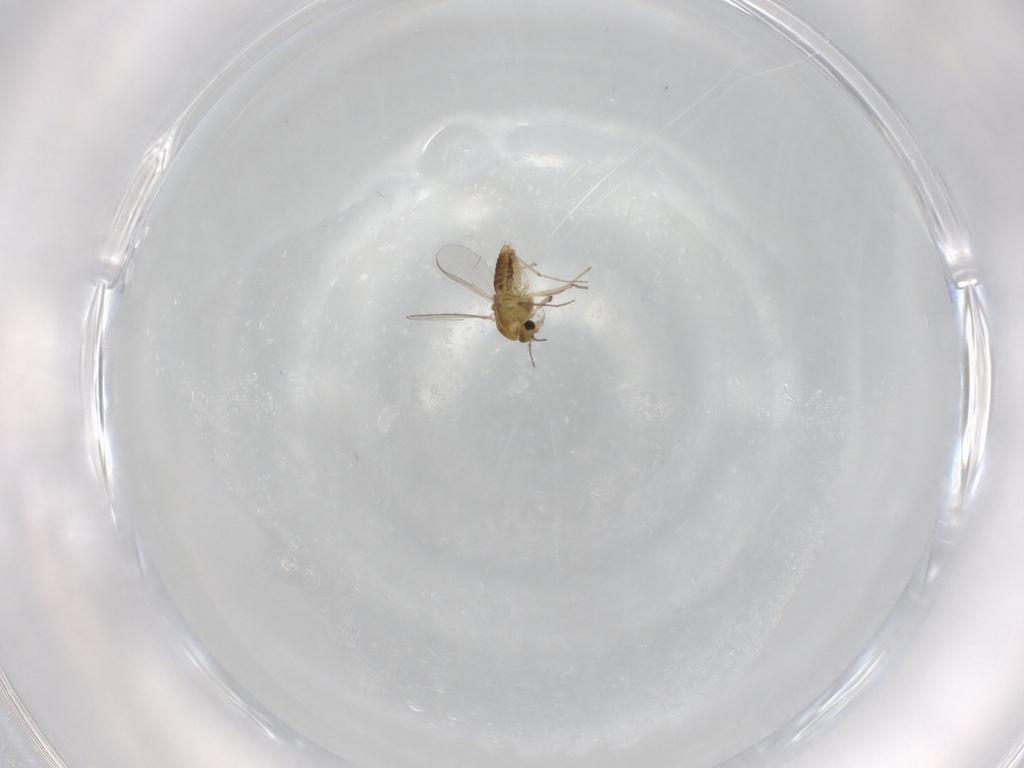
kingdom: Animalia
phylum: Arthropoda
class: Insecta
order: Diptera
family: Chironomidae
